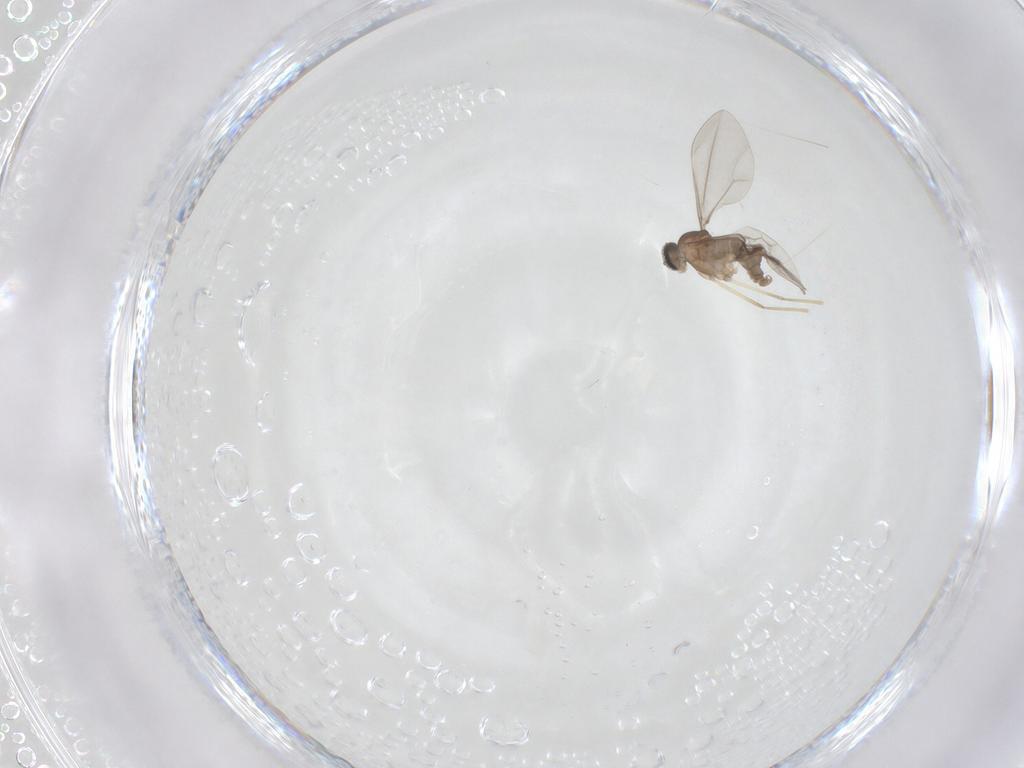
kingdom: Animalia
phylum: Arthropoda
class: Insecta
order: Diptera
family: Cecidomyiidae
